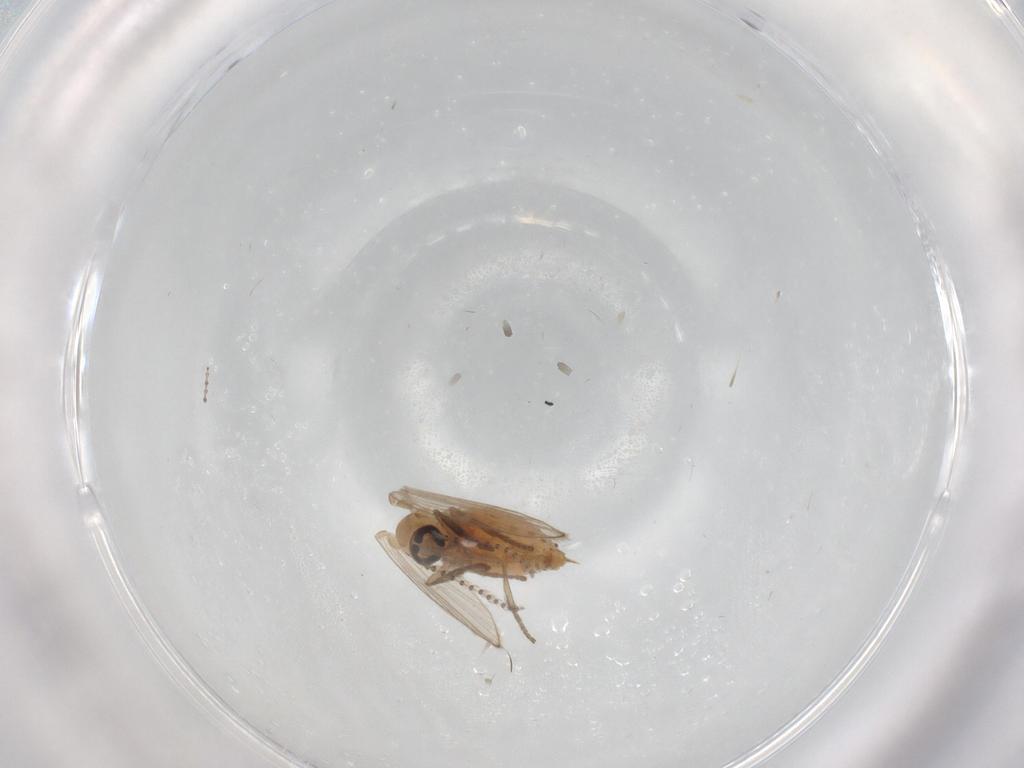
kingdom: Animalia
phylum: Arthropoda
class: Insecta
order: Diptera
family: Psychodidae
